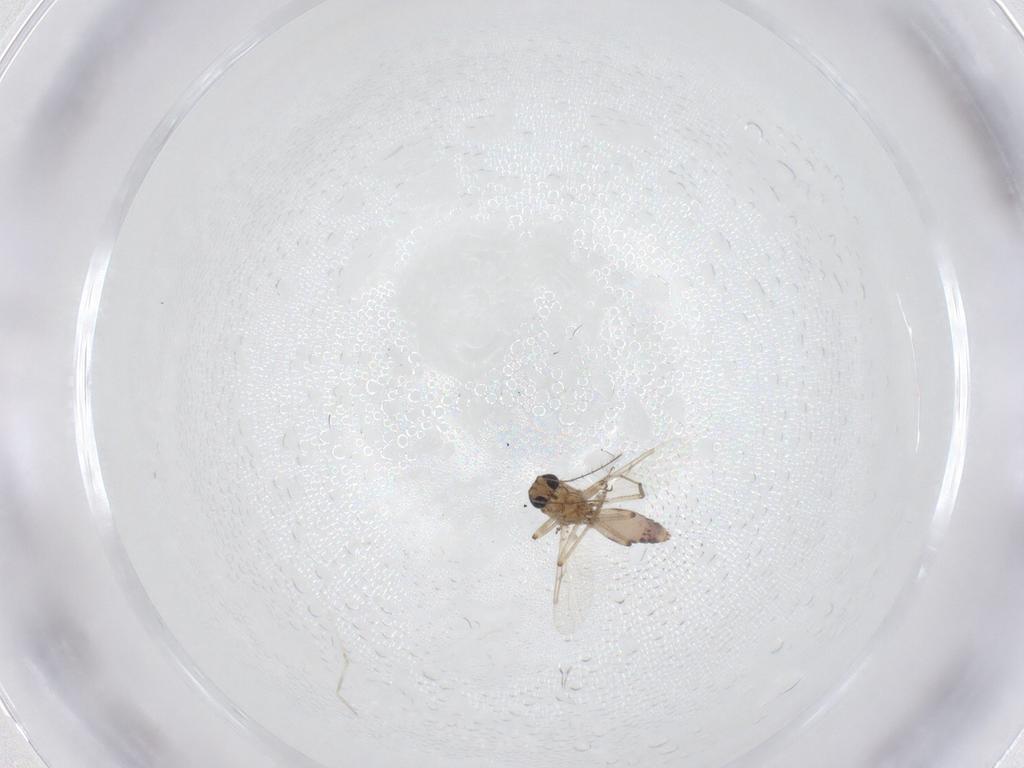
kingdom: Animalia
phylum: Arthropoda
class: Insecta
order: Diptera
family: Ceratopogonidae
